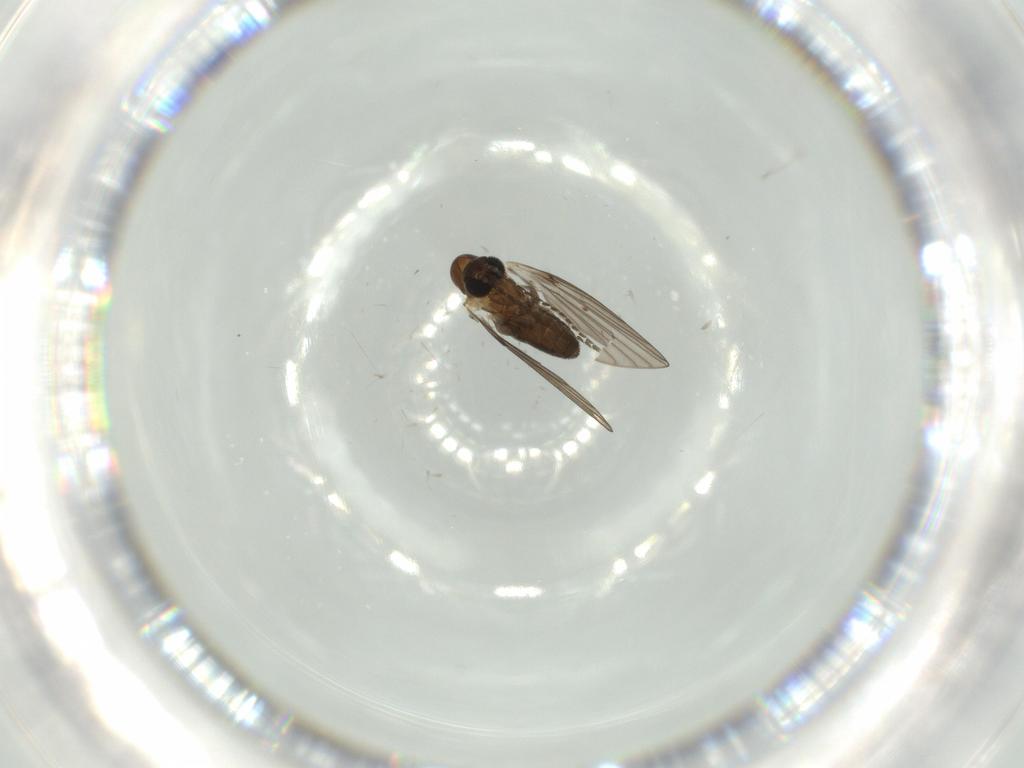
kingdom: Animalia
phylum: Arthropoda
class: Insecta
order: Diptera
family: Psychodidae
